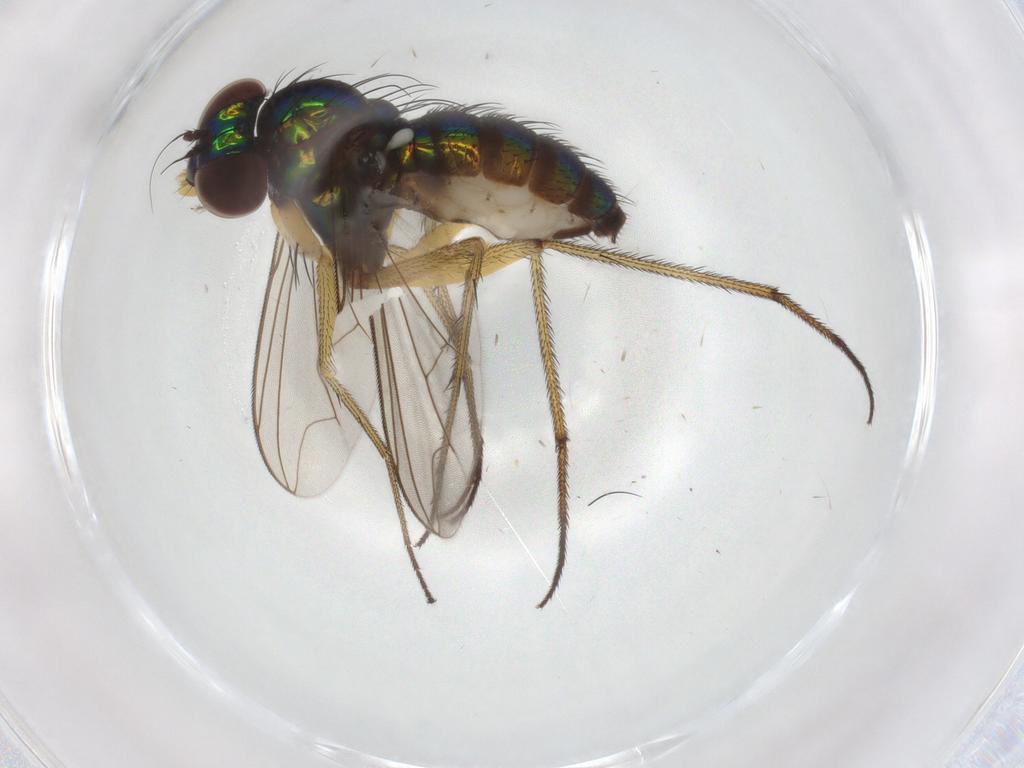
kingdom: Animalia
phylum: Arthropoda
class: Insecta
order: Diptera
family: Dolichopodidae
